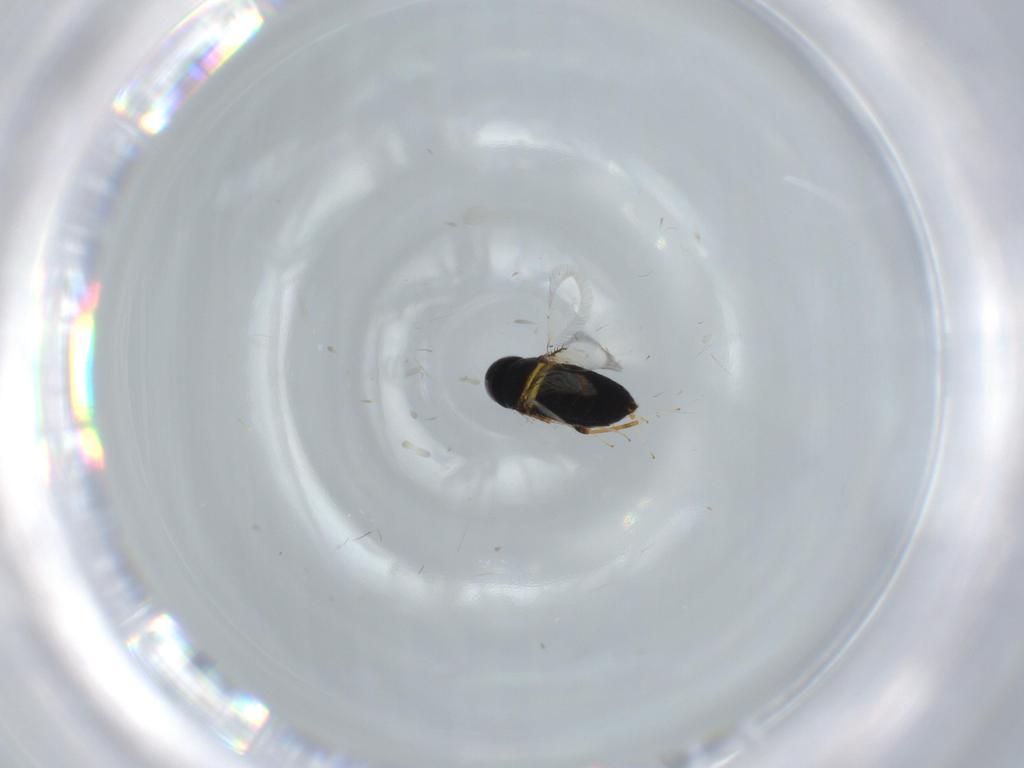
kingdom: Animalia
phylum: Arthropoda
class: Insecta
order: Hymenoptera
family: Signiphoridae
